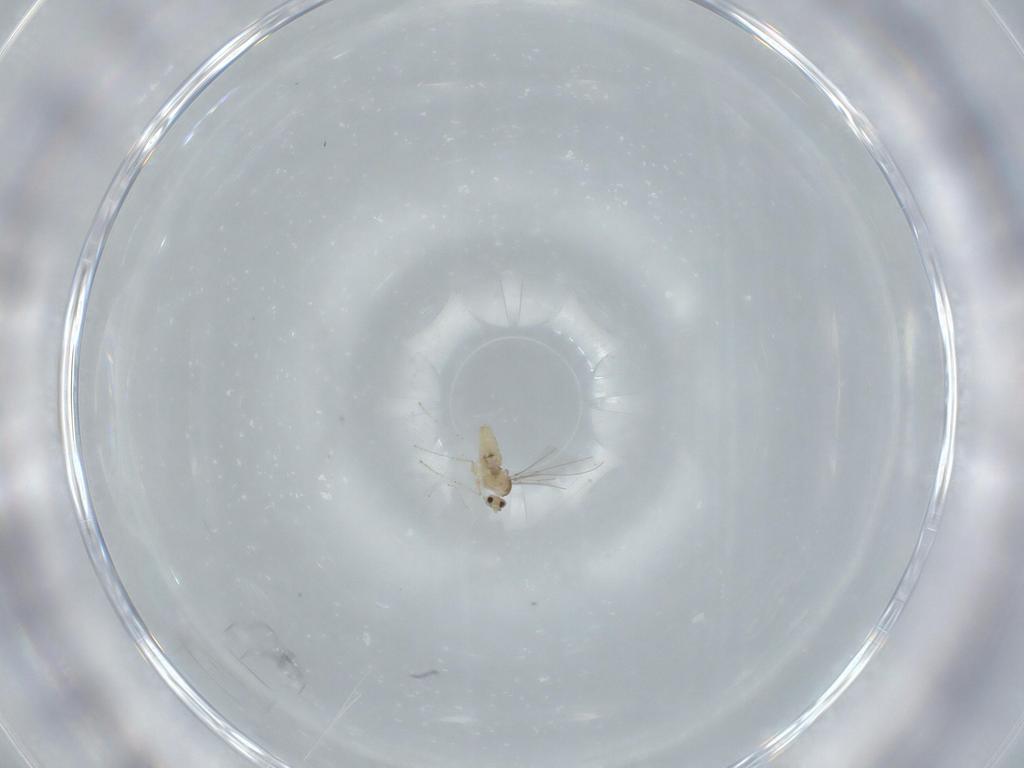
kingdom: Animalia
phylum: Arthropoda
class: Insecta
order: Diptera
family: Cecidomyiidae
